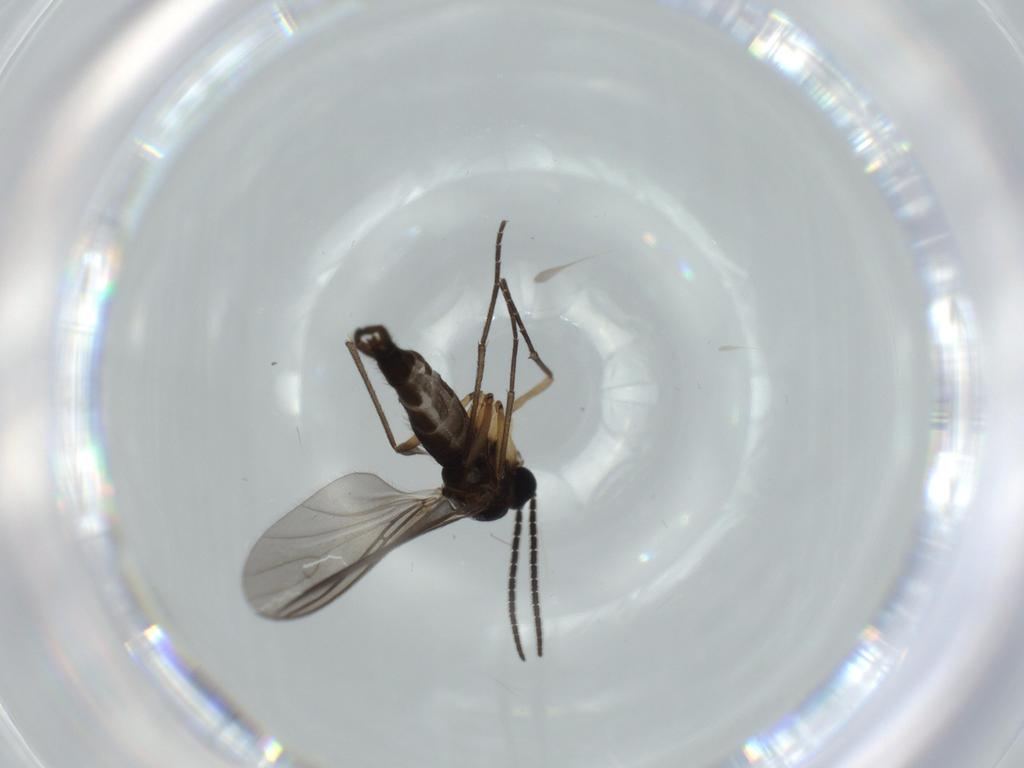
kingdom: Animalia
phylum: Arthropoda
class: Insecta
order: Diptera
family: Sciaridae
